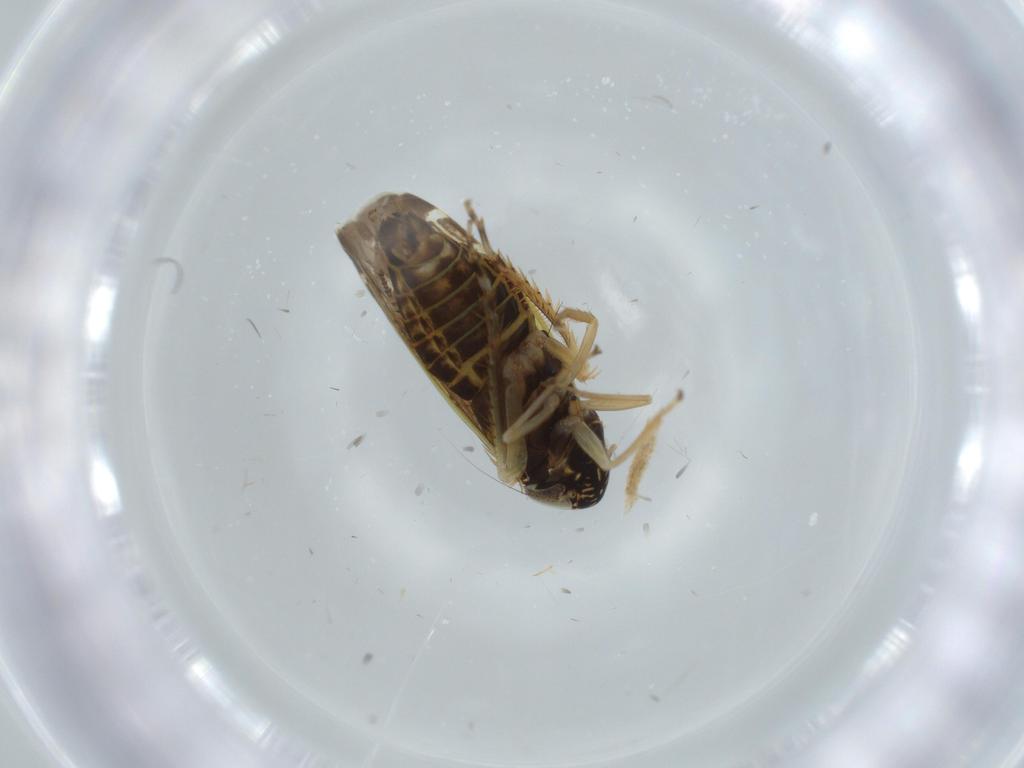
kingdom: Animalia
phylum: Arthropoda
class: Insecta
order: Hemiptera
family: Cicadellidae
